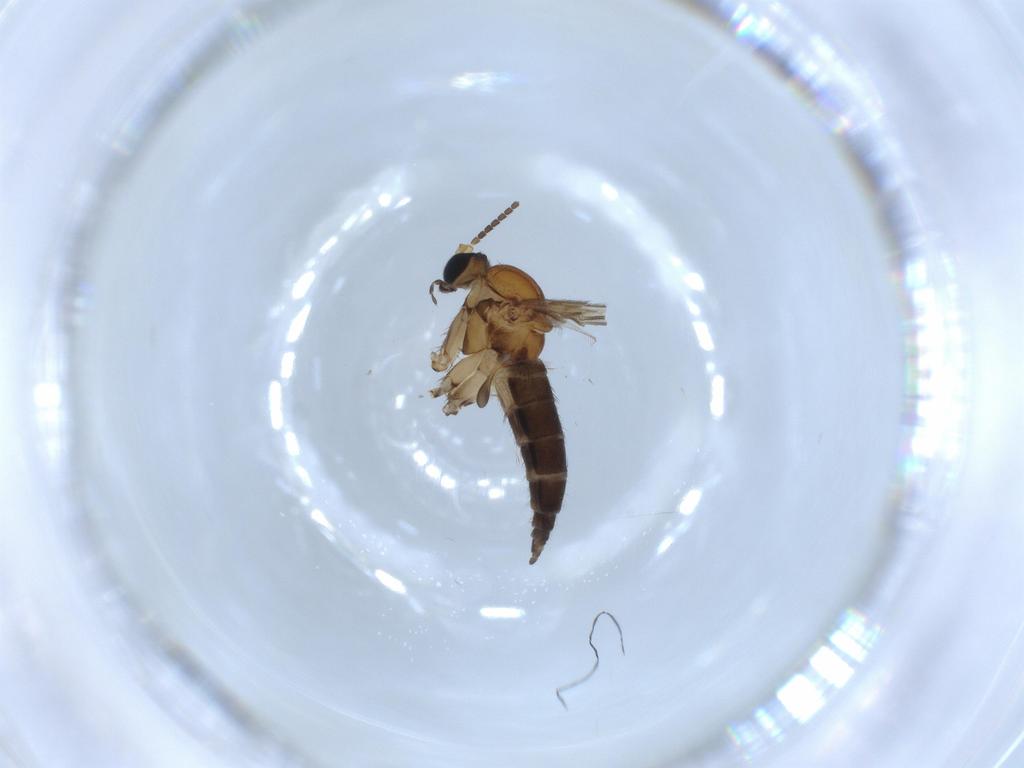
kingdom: Animalia
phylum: Arthropoda
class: Insecta
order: Diptera
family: Sciaridae
